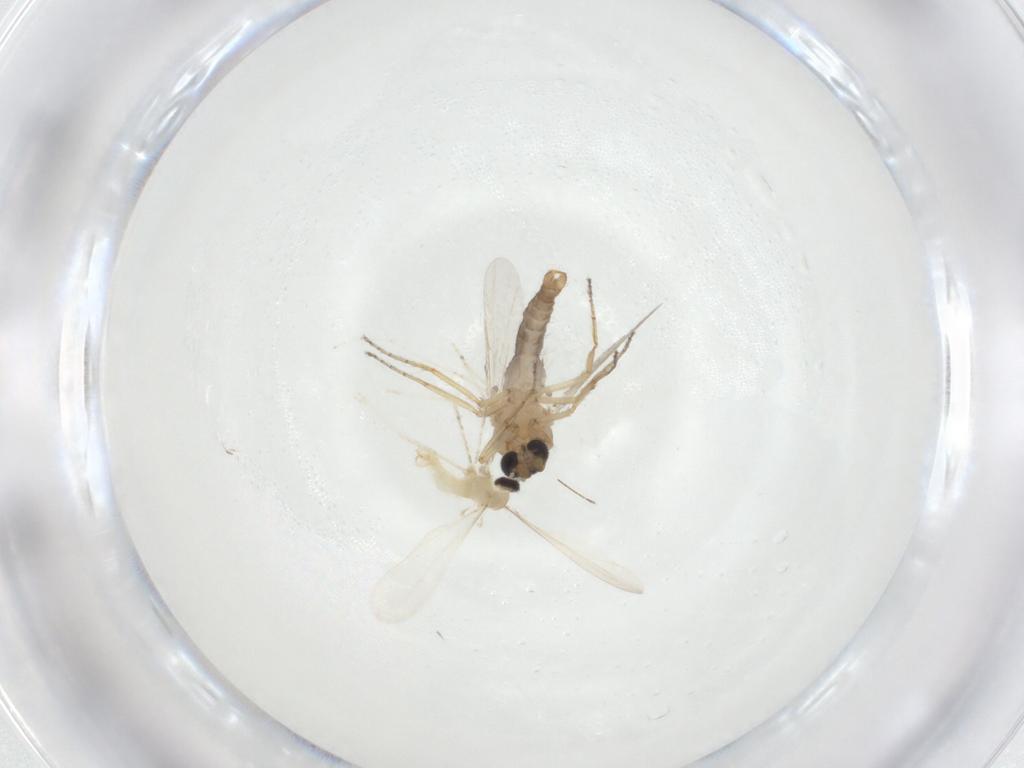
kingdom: Animalia
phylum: Arthropoda
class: Insecta
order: Diptera
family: Ceratopogonidae
